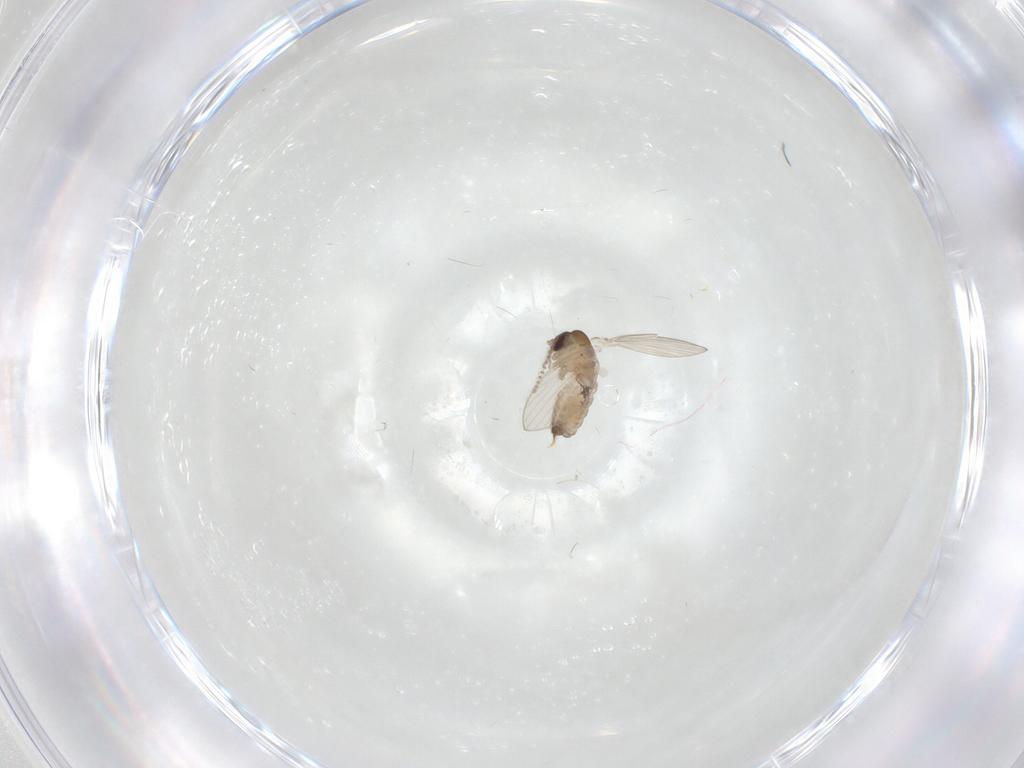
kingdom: Animalia
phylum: Arthropoda
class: Insecta
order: Diptera
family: Psychodidae
